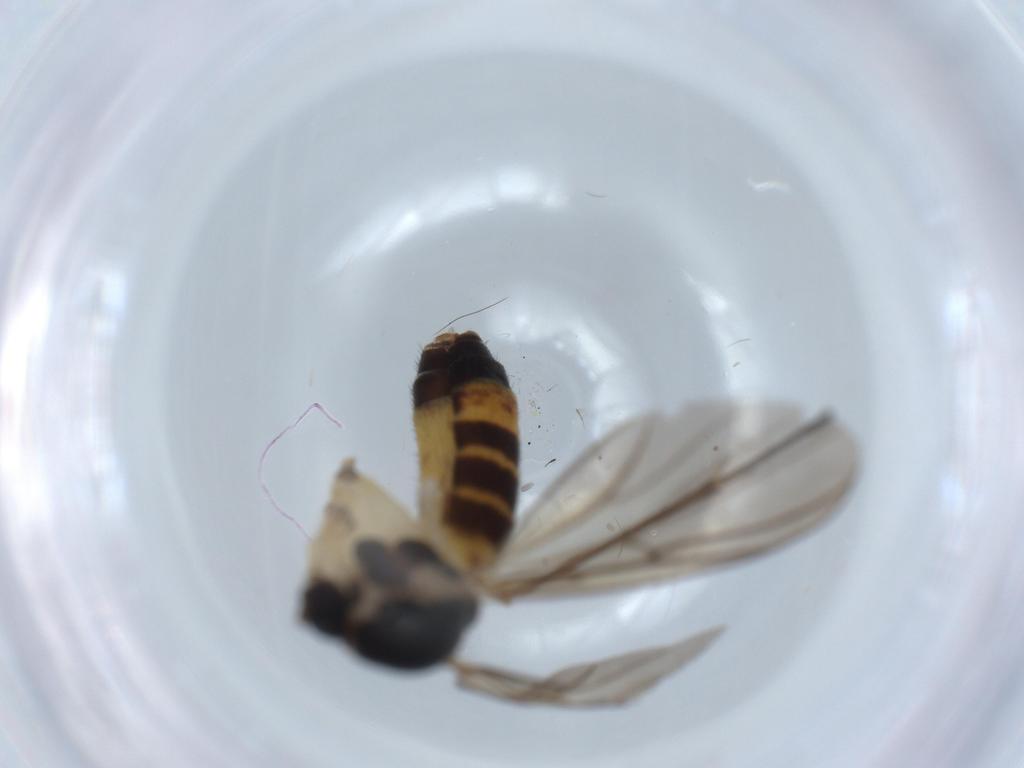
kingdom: Animalia
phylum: Arthropoda
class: Insecta
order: Diptera
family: Mycetophilidae
